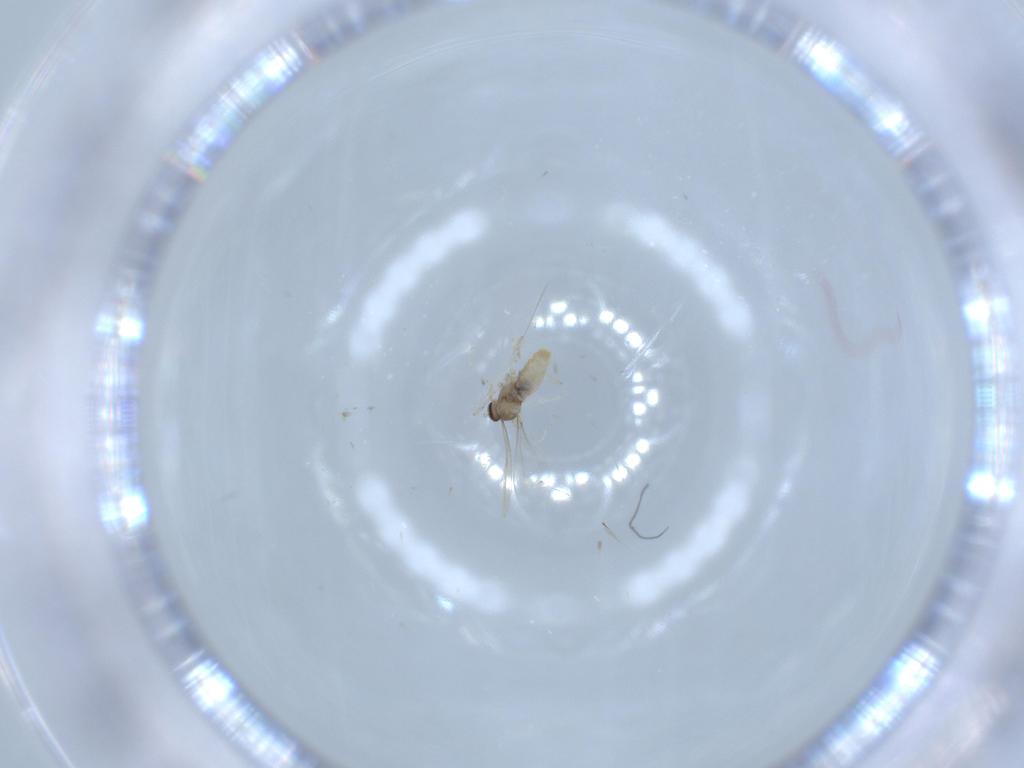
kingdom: Animalia
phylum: Arthropoda
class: Insecta
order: Diptera
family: Cecidomyiidae
